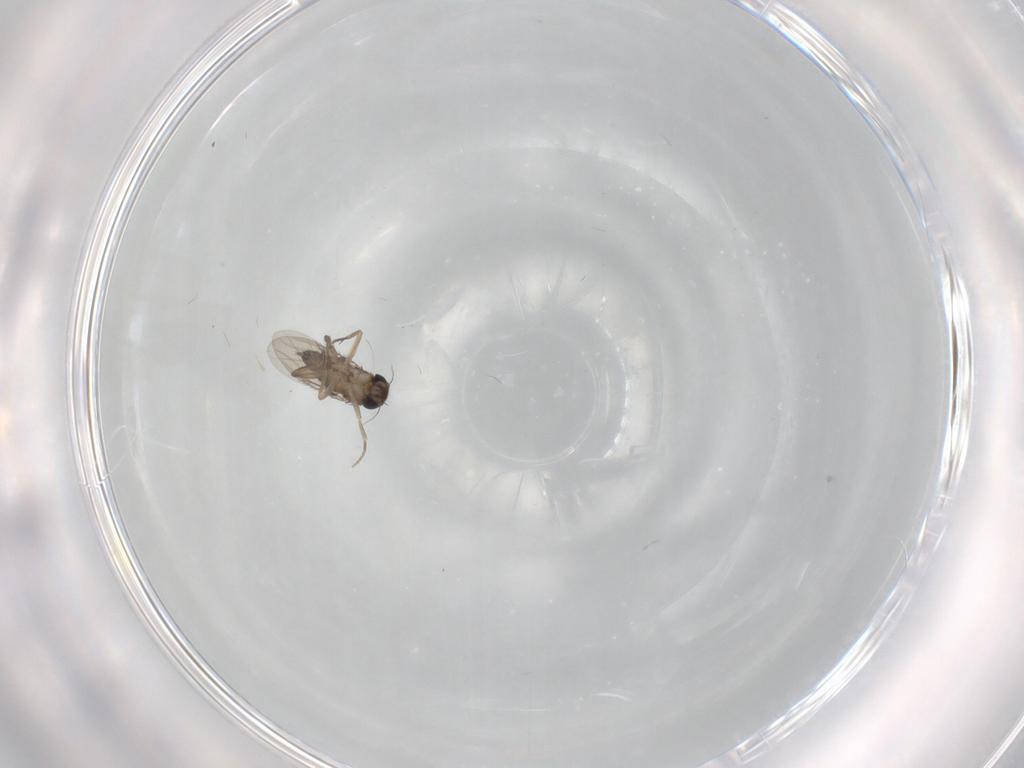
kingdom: Animalia
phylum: Arthropoda
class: Insecta
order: Diptera
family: Phoridae
